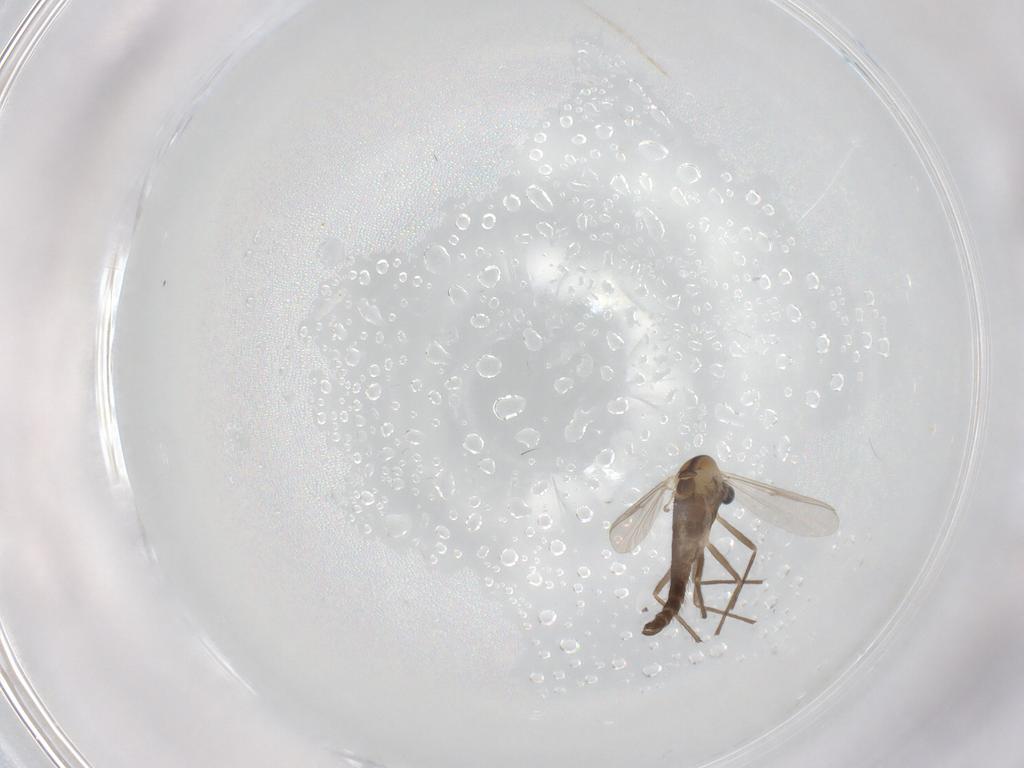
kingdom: Animalia
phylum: Arthropoda
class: Insecta
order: Diptera
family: Chironomidae
